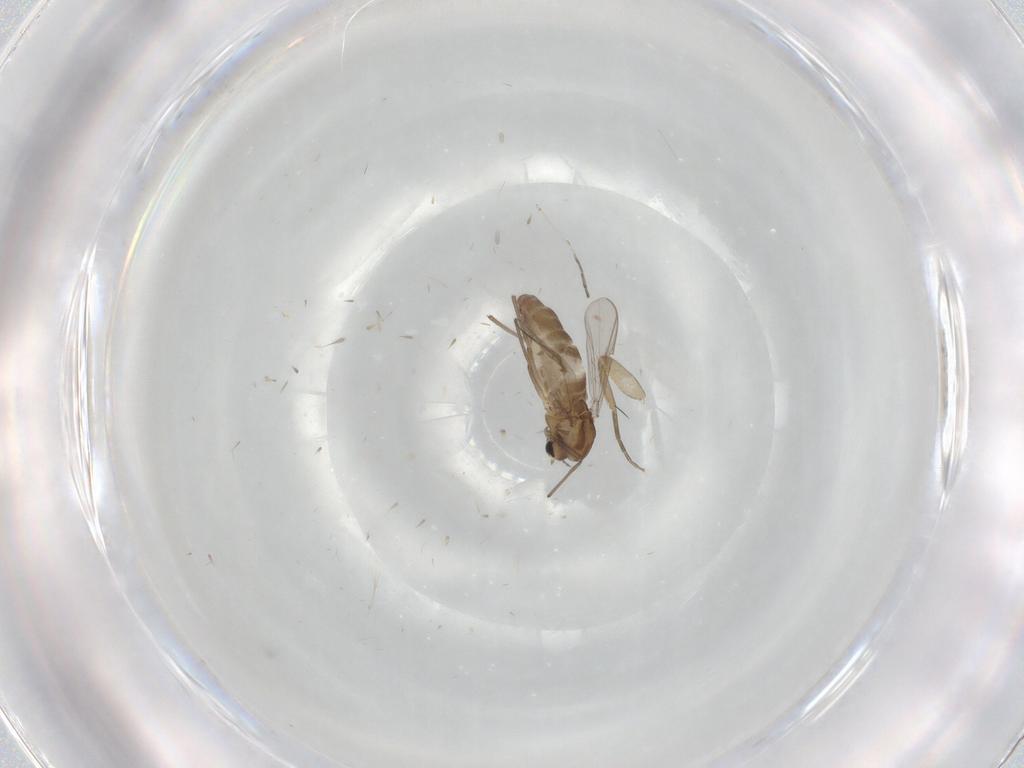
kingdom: Animalia
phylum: Arthropoda
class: Insecta
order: Diptera
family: Chironomidae
